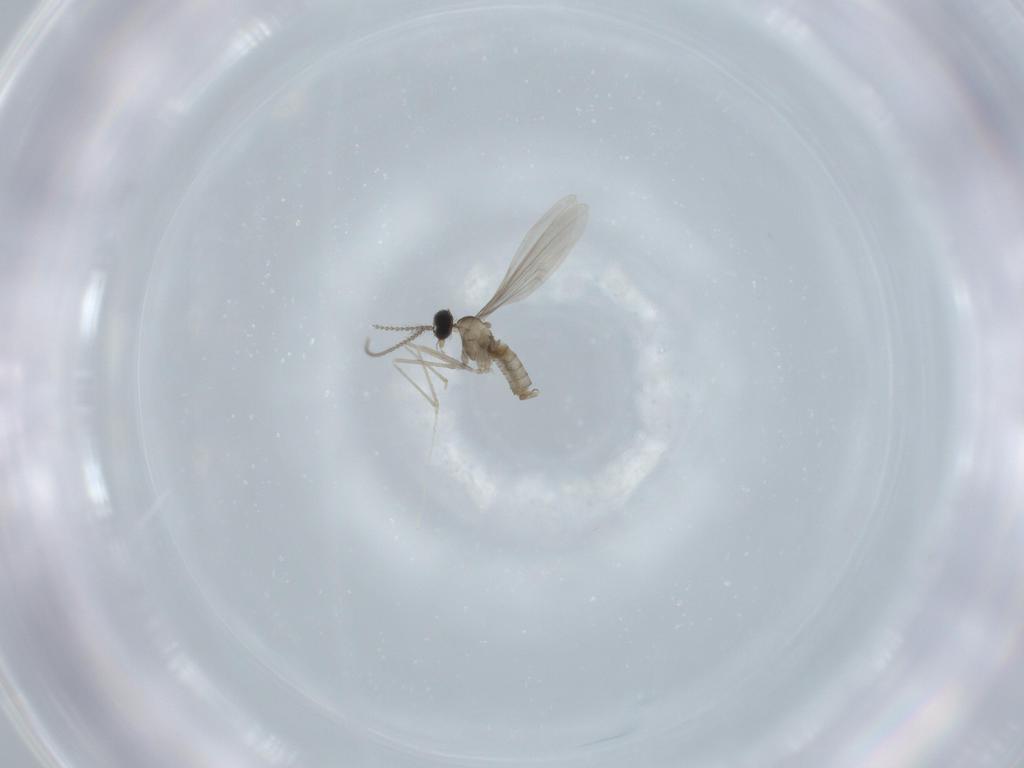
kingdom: Animalia
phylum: Arthropoda
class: Insecta
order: Diptera
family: Cecidomyiidae
